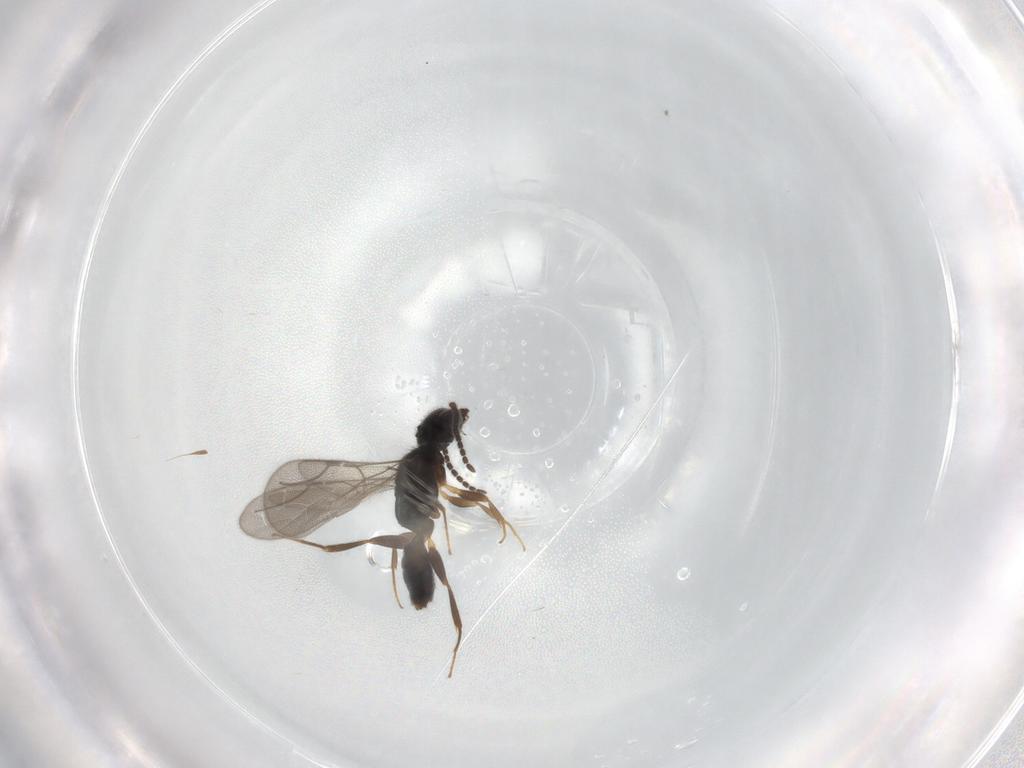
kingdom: Animalia
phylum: Arthropoda
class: Insecta
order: Hymenoptera
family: Bethylidae
